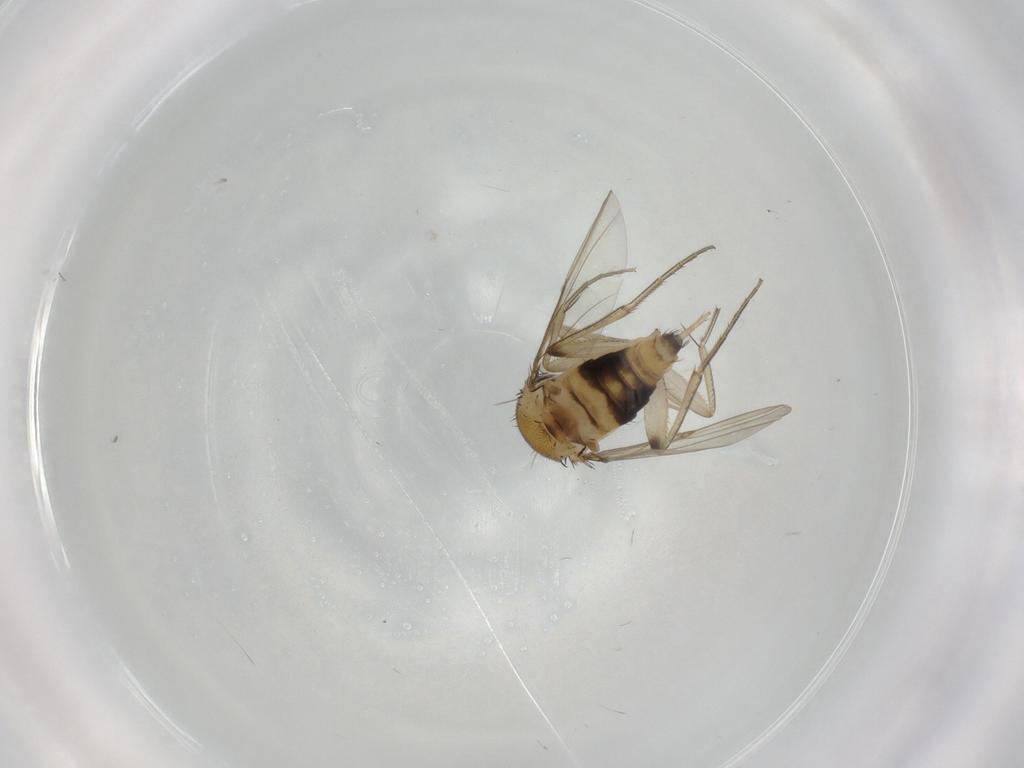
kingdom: Animalia
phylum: Arthropoda
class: Insecta
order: Diptera
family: Phoridae
